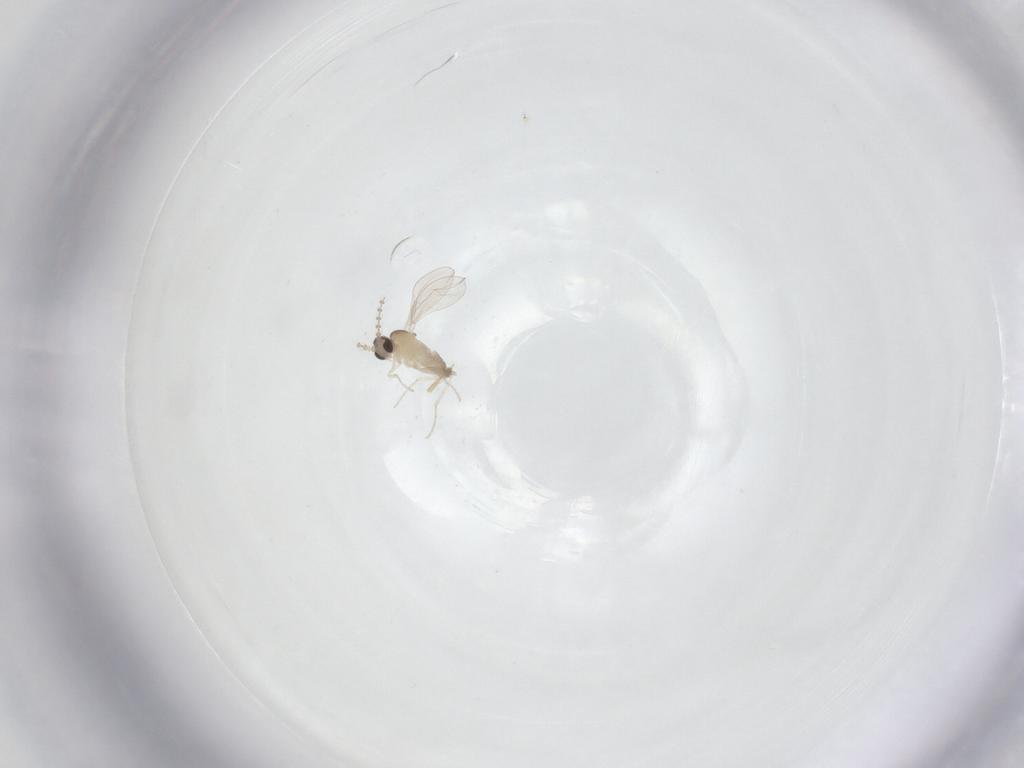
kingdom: Animalia
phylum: Arthropoda
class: Insecta
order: Diptera
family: Cecidomyiidae
